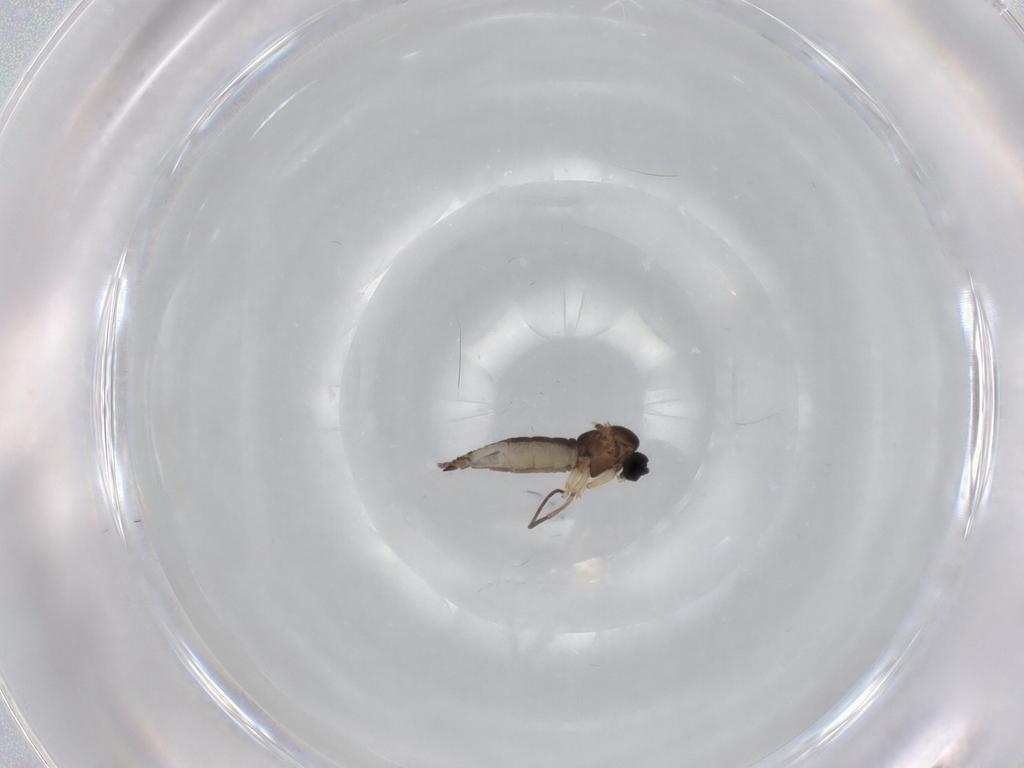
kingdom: Animalia
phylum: Arthropoda
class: Insecta
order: Diptera
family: Sciaridae
